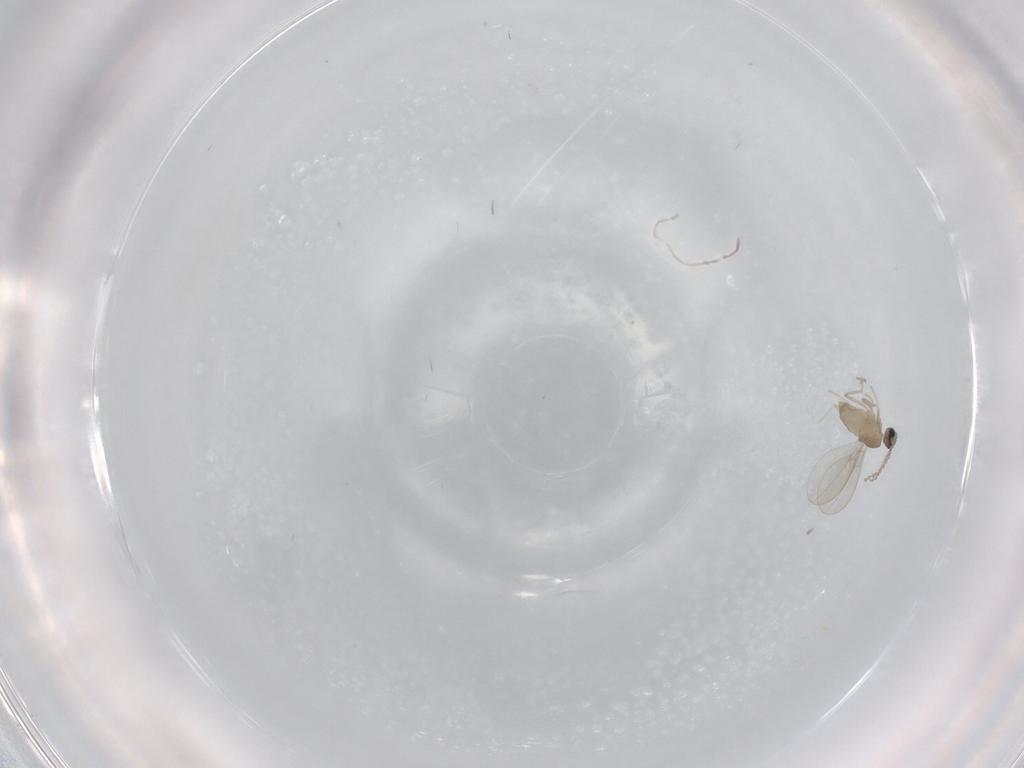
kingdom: Animalia
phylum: Arthropoda
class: Insecta
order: Diptera
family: Cecidomyiidae
